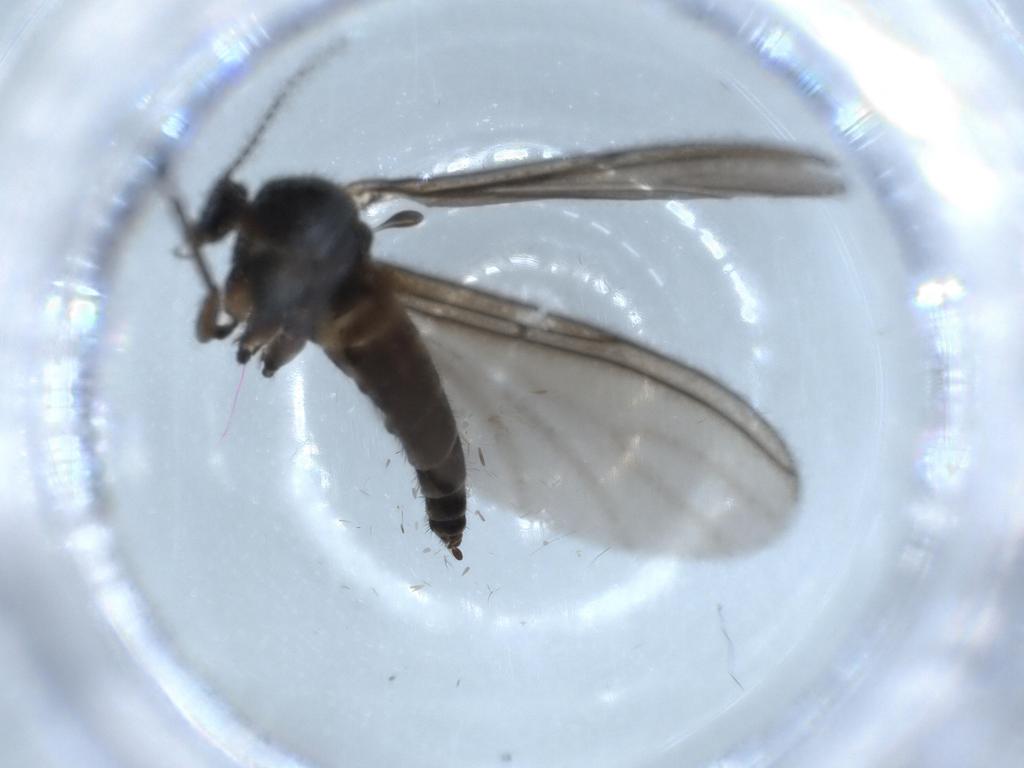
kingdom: Animalia
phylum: Arthropoda
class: Insecta
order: Diptera
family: Sciaridae
